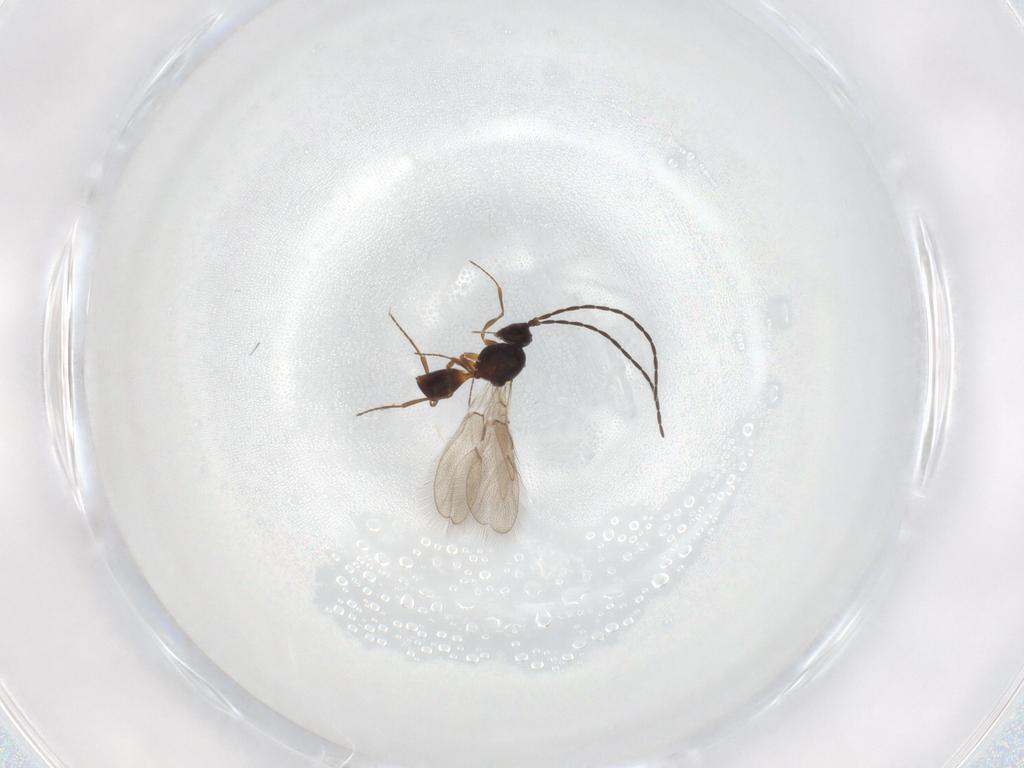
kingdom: Animalia
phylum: Arthropoda
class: Insecta
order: Hymenoptera
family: Figitidae
